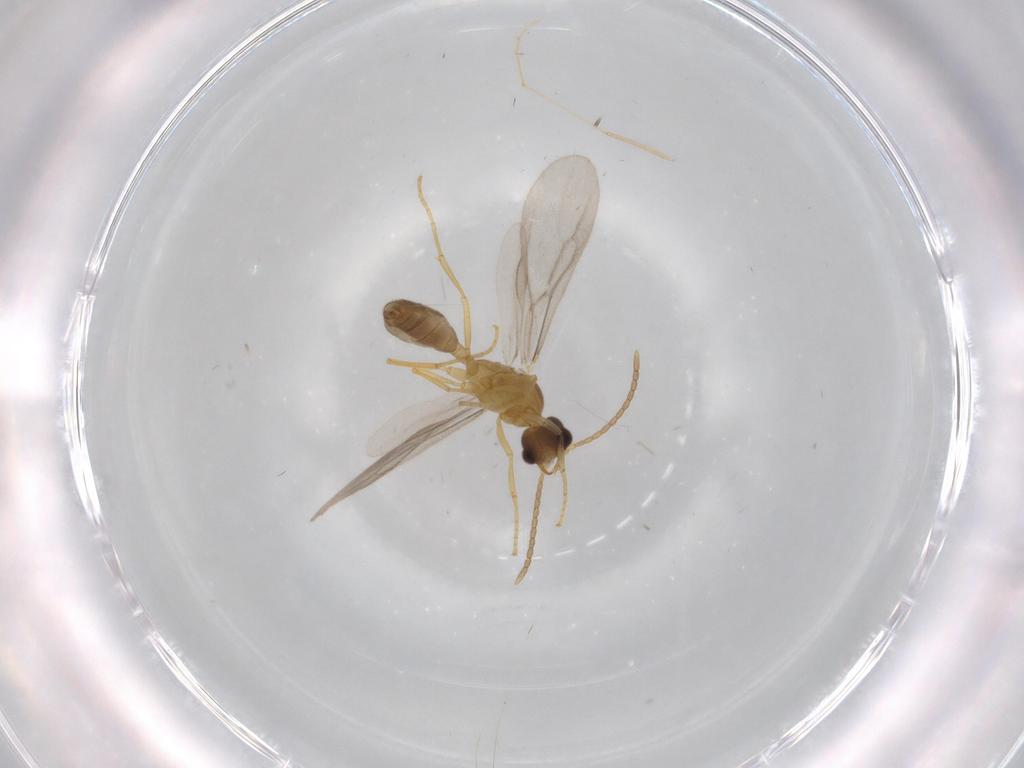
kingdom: Animalia
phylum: Arthropoda
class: Insecta
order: Hymenoptera
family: Formicidae
